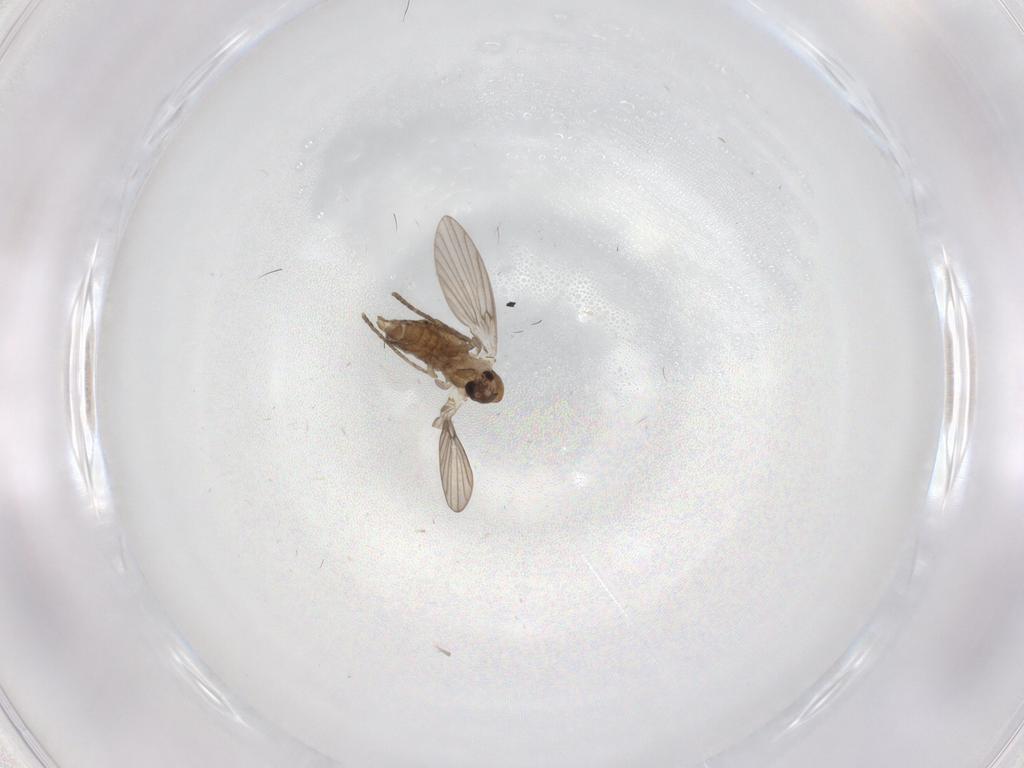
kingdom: Animalia
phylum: Arthropoda
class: Insecta
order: Diptera
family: Psychodidae
